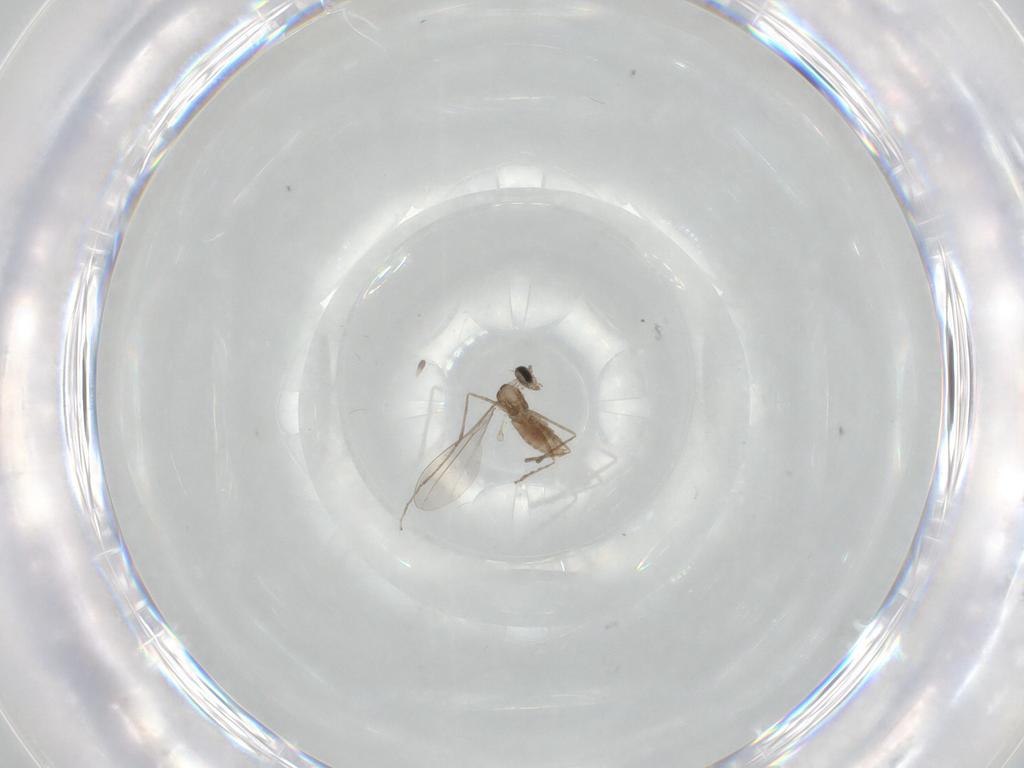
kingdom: Animalia
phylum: Arthropoda
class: Insecta
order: Diptera
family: Cecidomyiidae
